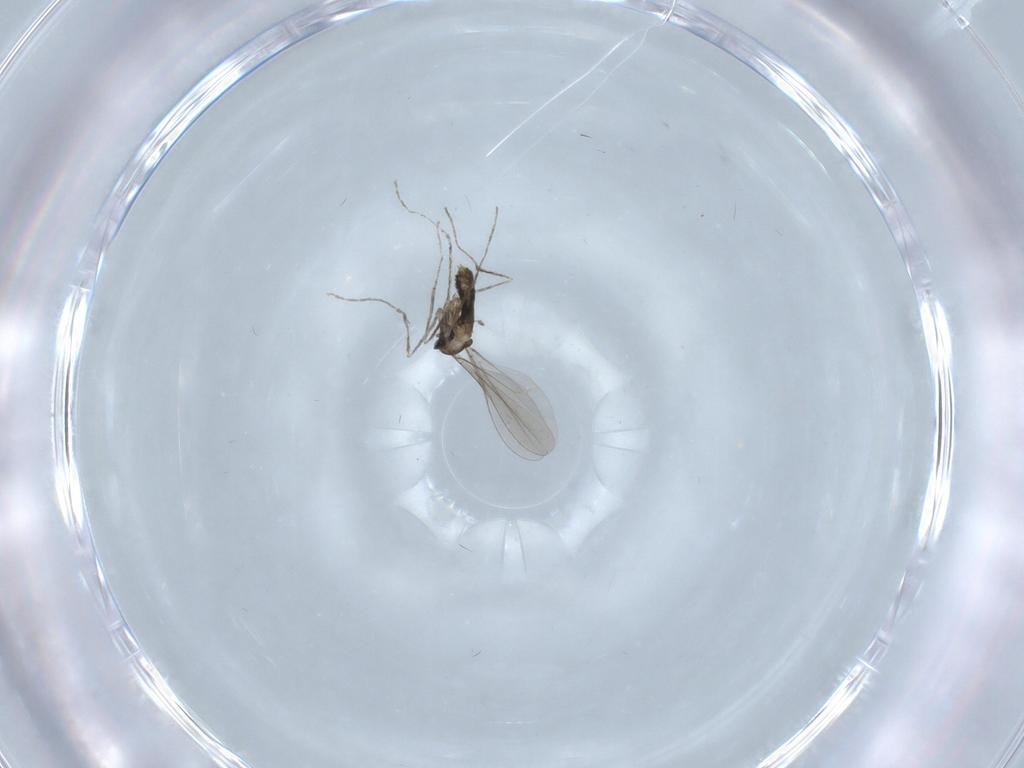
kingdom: Animalia
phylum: Arthropoda
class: Insecta
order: Diptera
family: Cecidomyiidae
